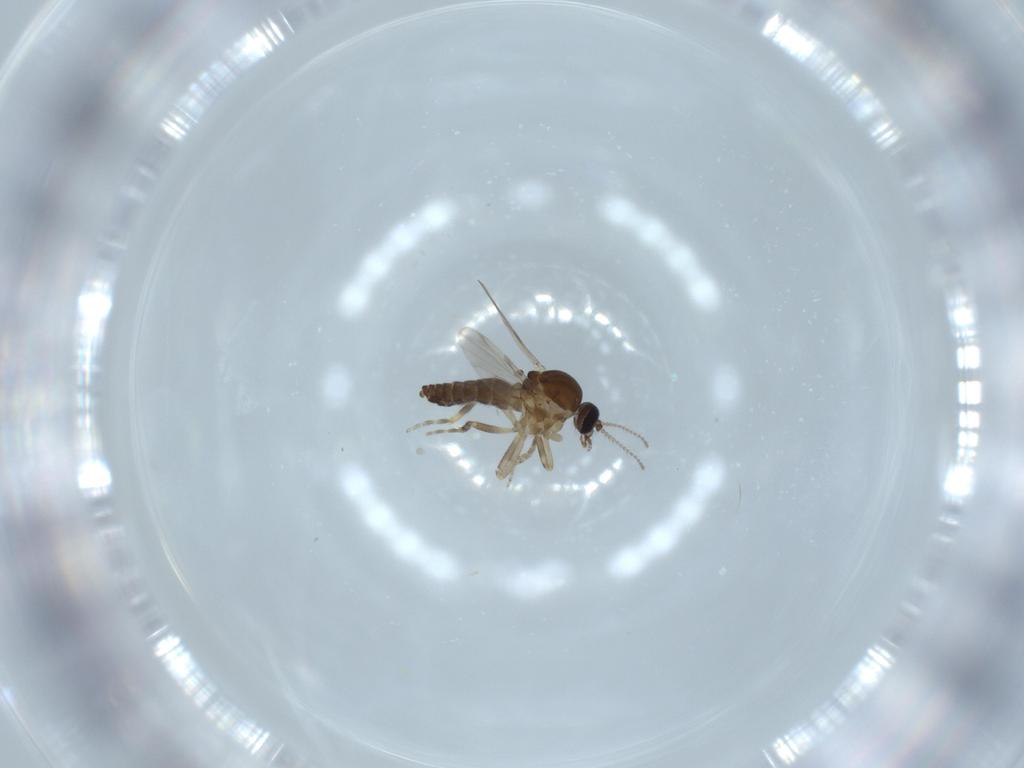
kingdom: Animalia
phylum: Arthropoda
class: Insecta
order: Diptera
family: Ceratopogonidae
